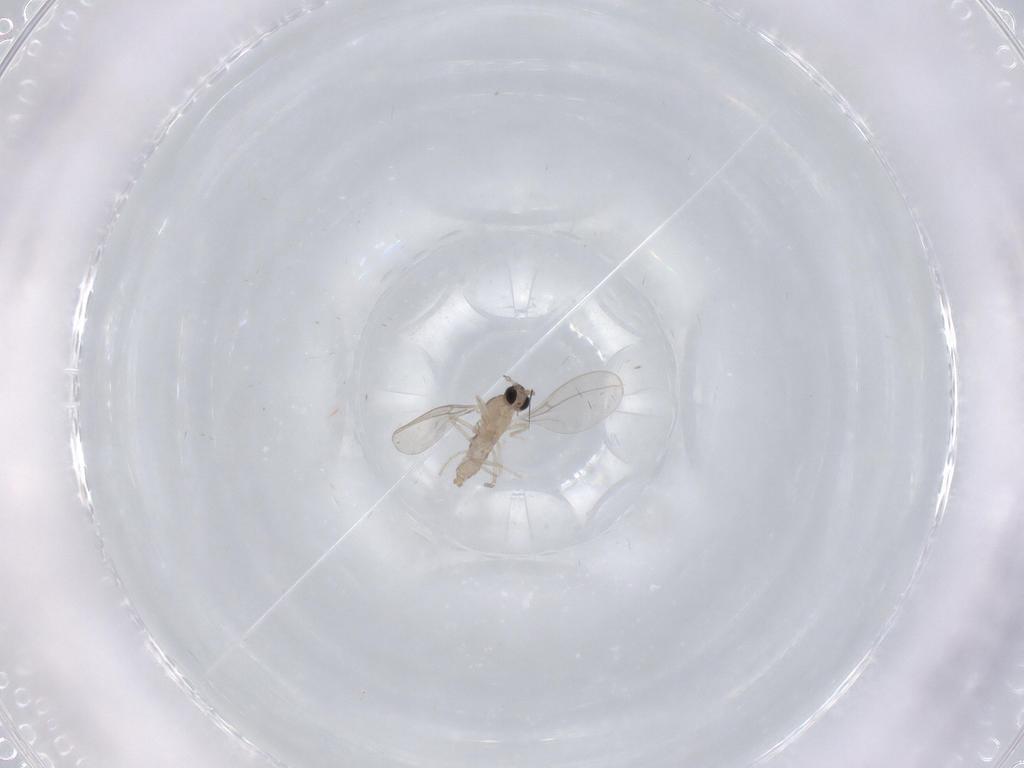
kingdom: Animalia
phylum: Arthropoda
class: Insecta
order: Diptera
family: Cecidomyiidae
